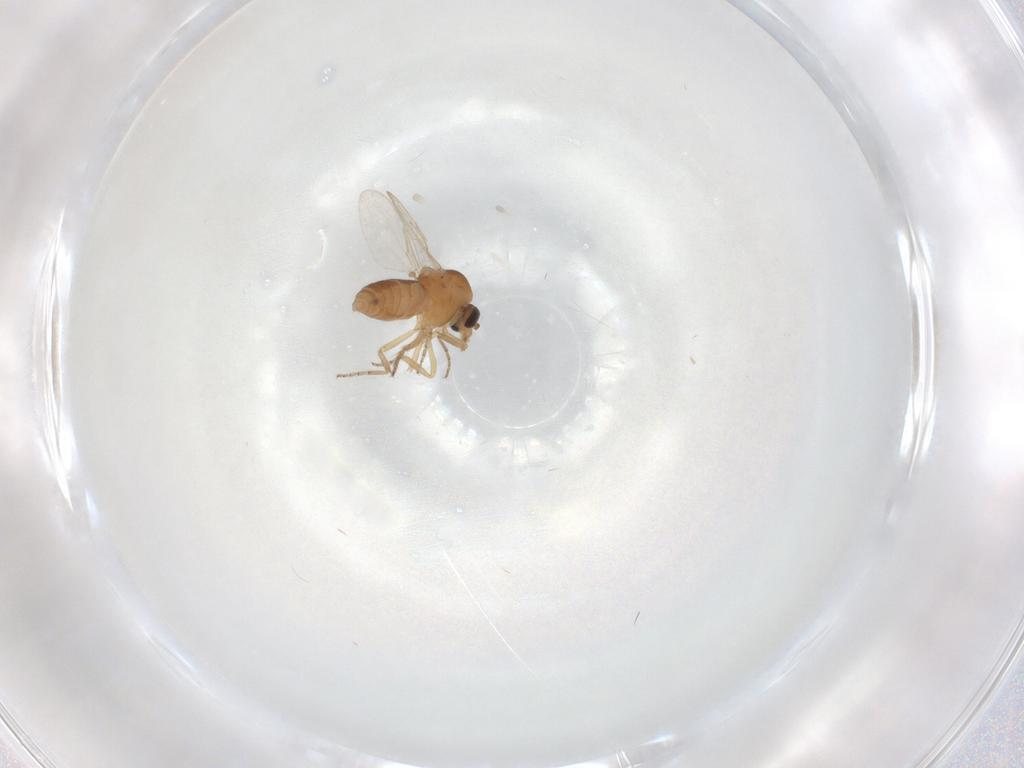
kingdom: Animalia
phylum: Arthropoda
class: Insecta
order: Diptera
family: Ceratopogonidae
